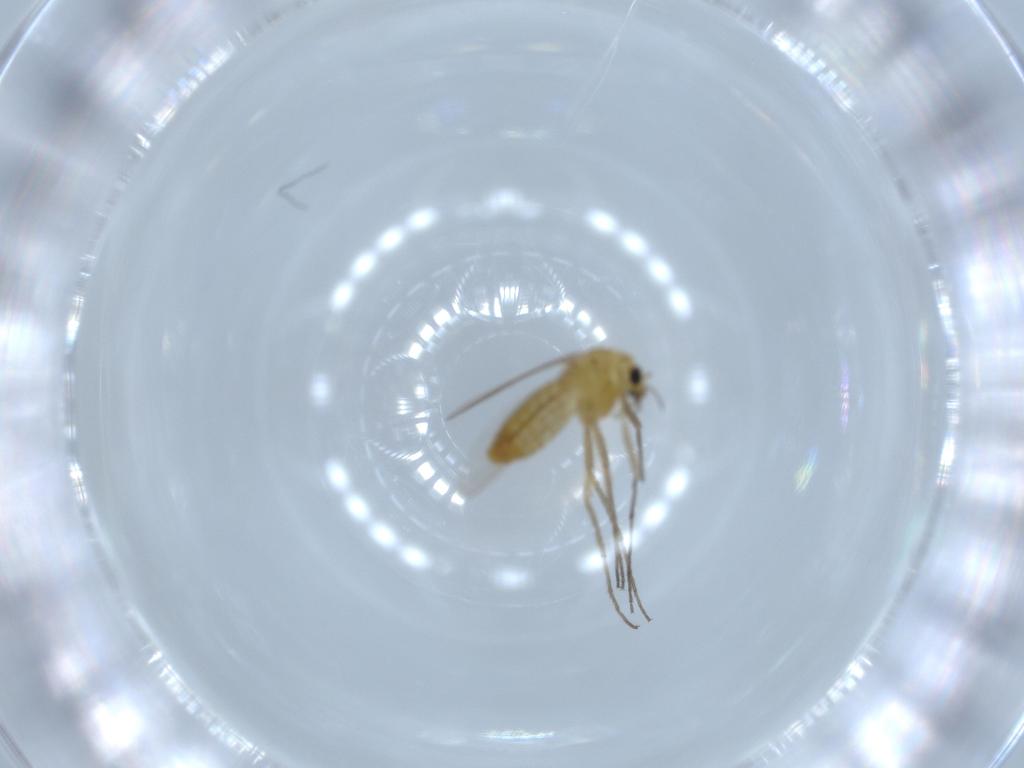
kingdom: Animalia
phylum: Arthropoda
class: Insecta
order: Diptera
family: Chironomidae
